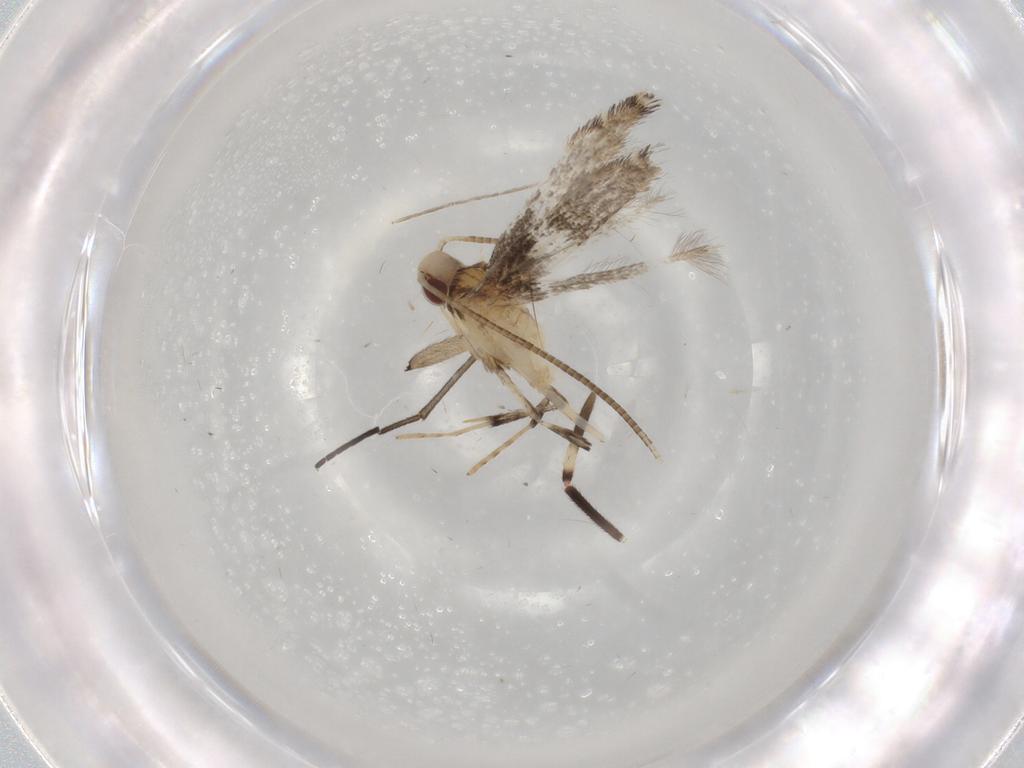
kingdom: Animalia
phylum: Arthropoda
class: Insecta
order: Lepidoptera
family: Gracillariidae
